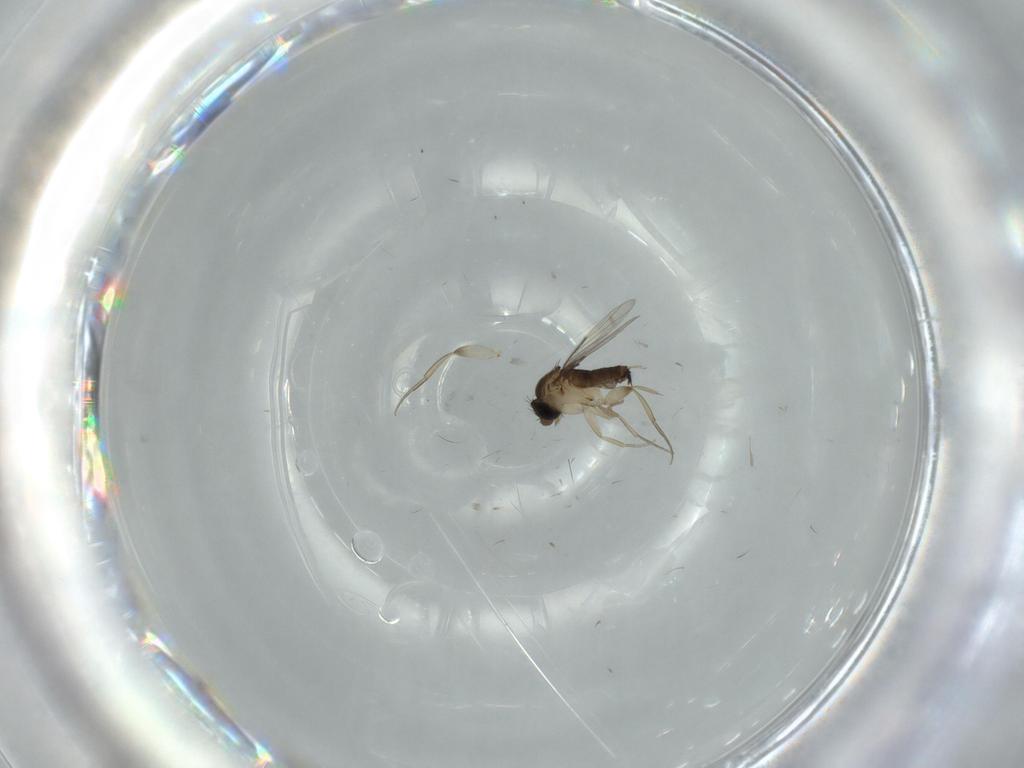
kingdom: Animalia
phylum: Arthropoda
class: Insecta
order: Diptera
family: Phoridae
